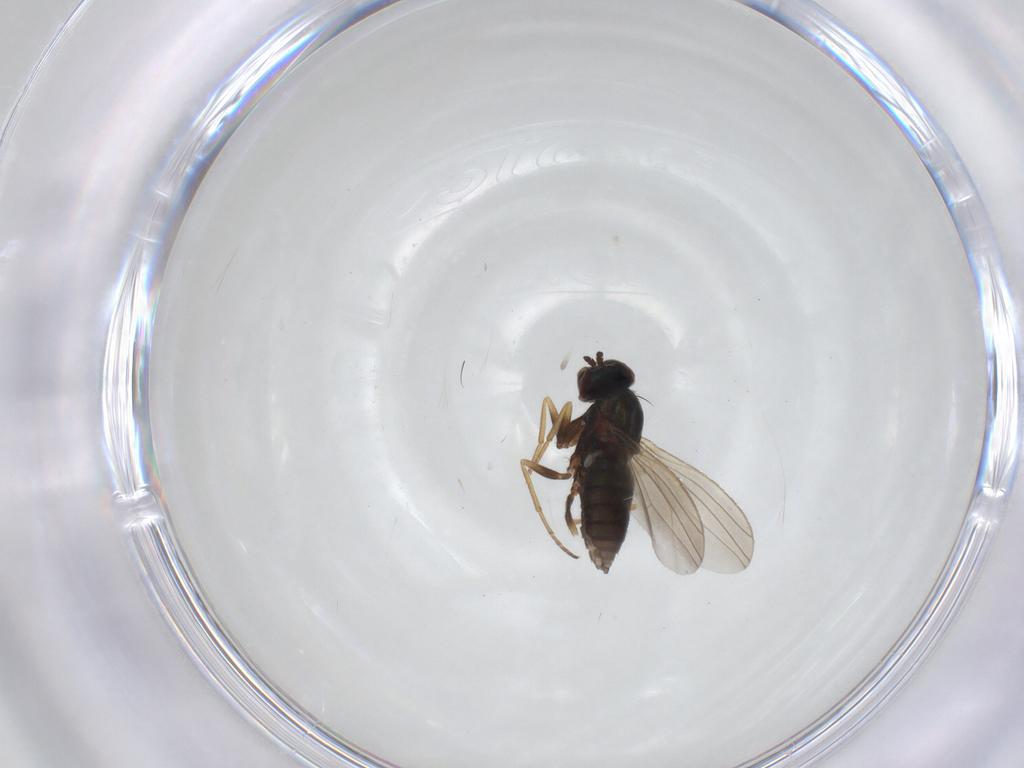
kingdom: Animalia
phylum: Arthropoda
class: Insecta
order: Diptera
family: Dolichopodidae
